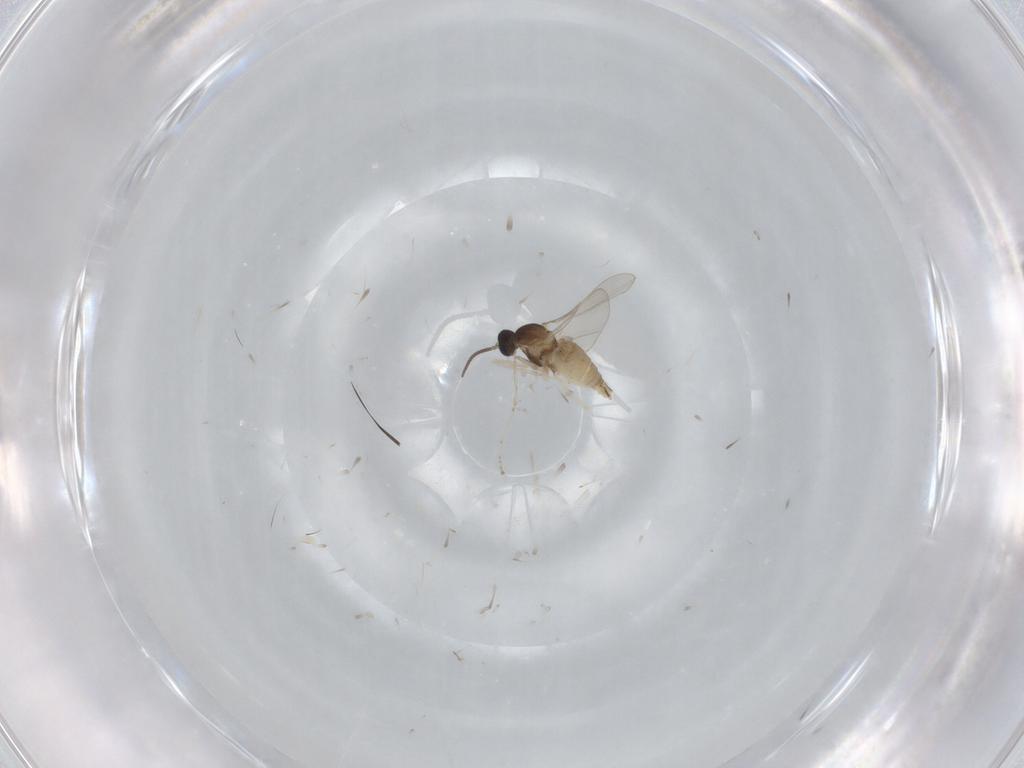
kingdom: Animalia
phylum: Arthropoda
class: Insecta
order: Diptera
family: Cecidomyiidae
